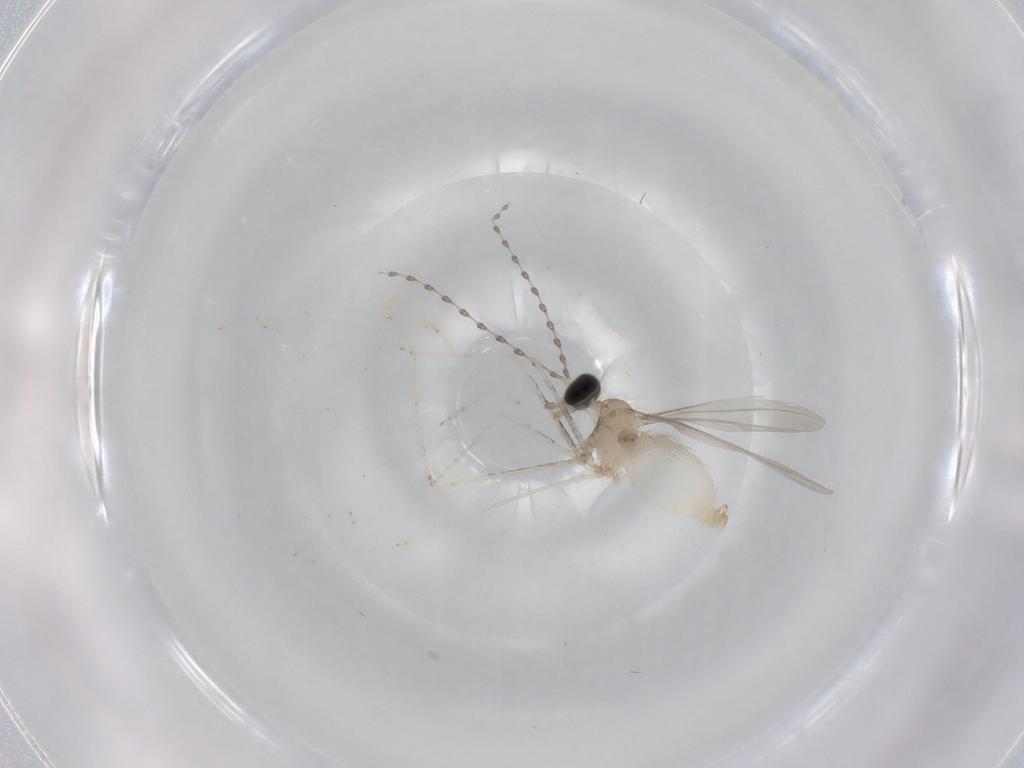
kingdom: Animalia
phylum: Arthropoda
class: Insecta
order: Diptera
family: Cecidomyiidae
